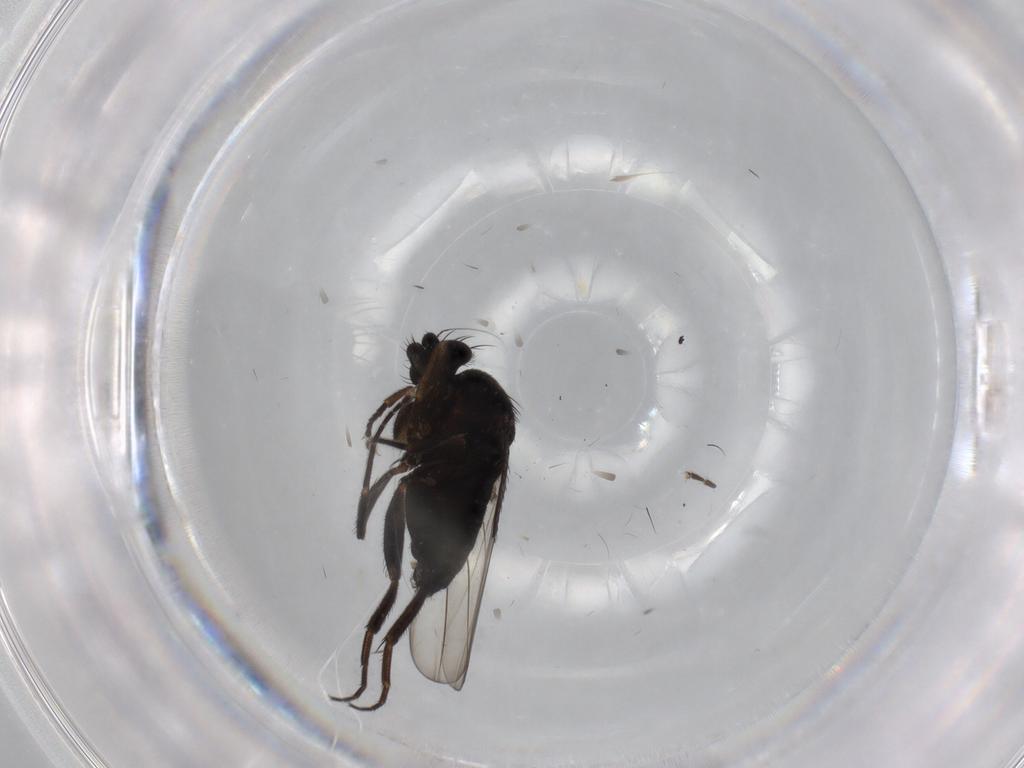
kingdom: Animalia
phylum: Arthropoda
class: Insecta
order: Diptera
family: Phoridae
